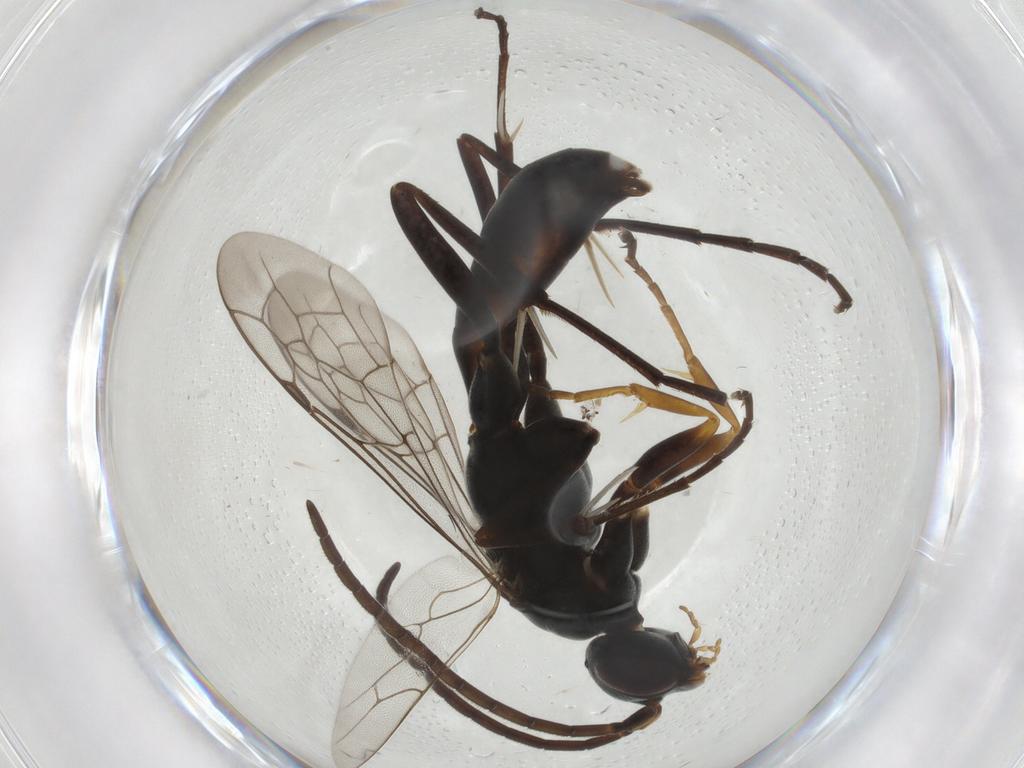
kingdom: Animalia
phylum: Arthropoda
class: Insecta
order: Hymenoptera
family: Pompilidae
